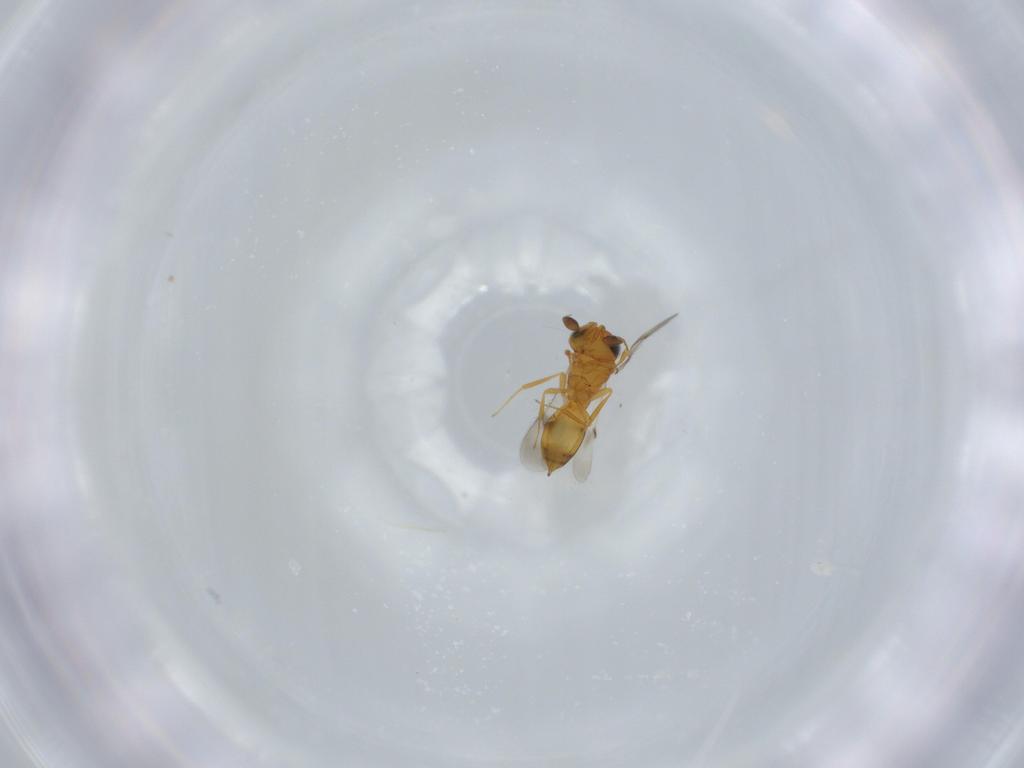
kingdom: Animalia
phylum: Arthropoda
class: Insecta
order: Hymenoptera
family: Scelionidae
